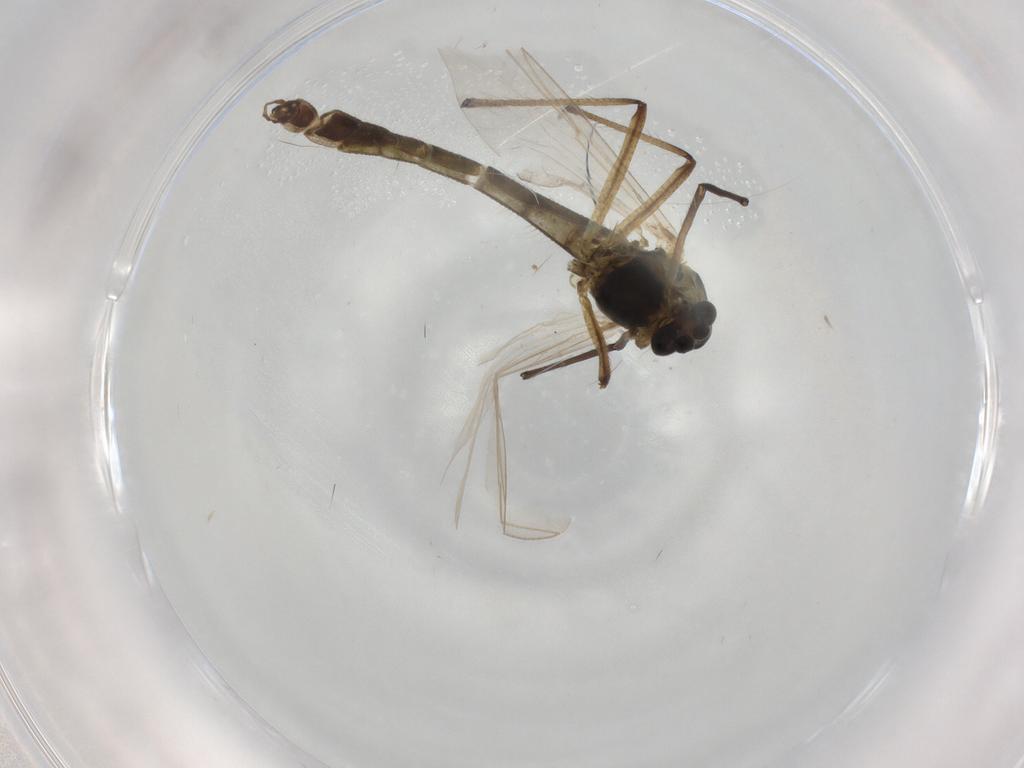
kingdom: Animalia
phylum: Arthropoda
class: Insecta
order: Diptera
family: Chironomidae
